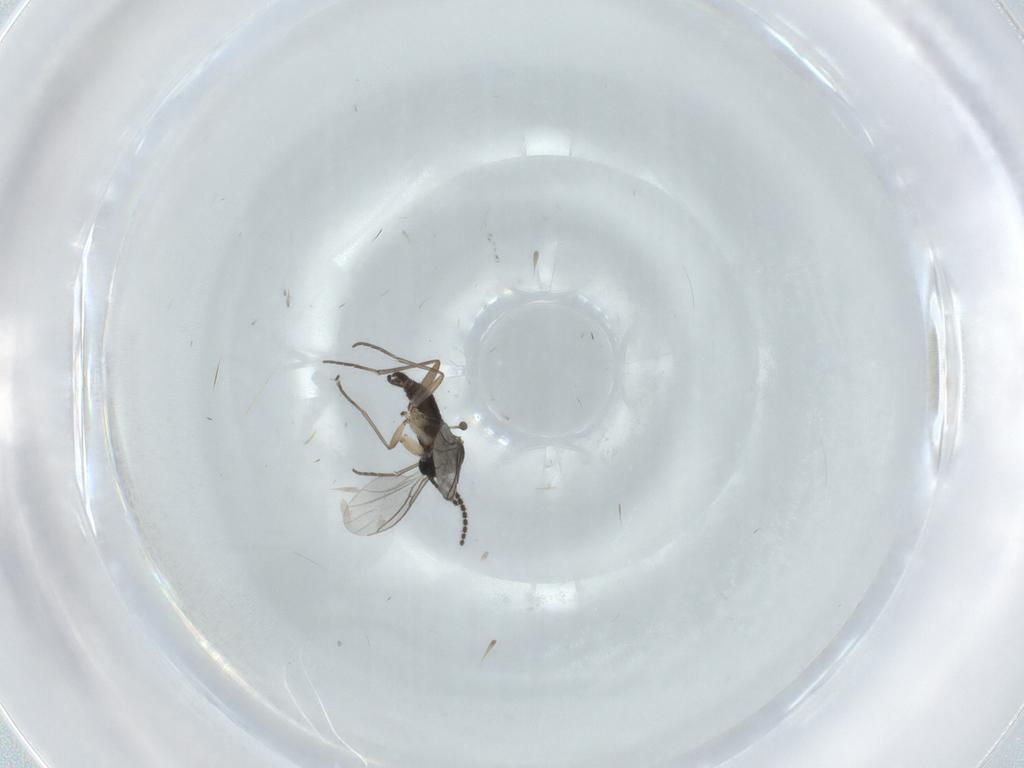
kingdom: Animalia
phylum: Arthropoda
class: Insecta
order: Diptera
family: Sciaridae
